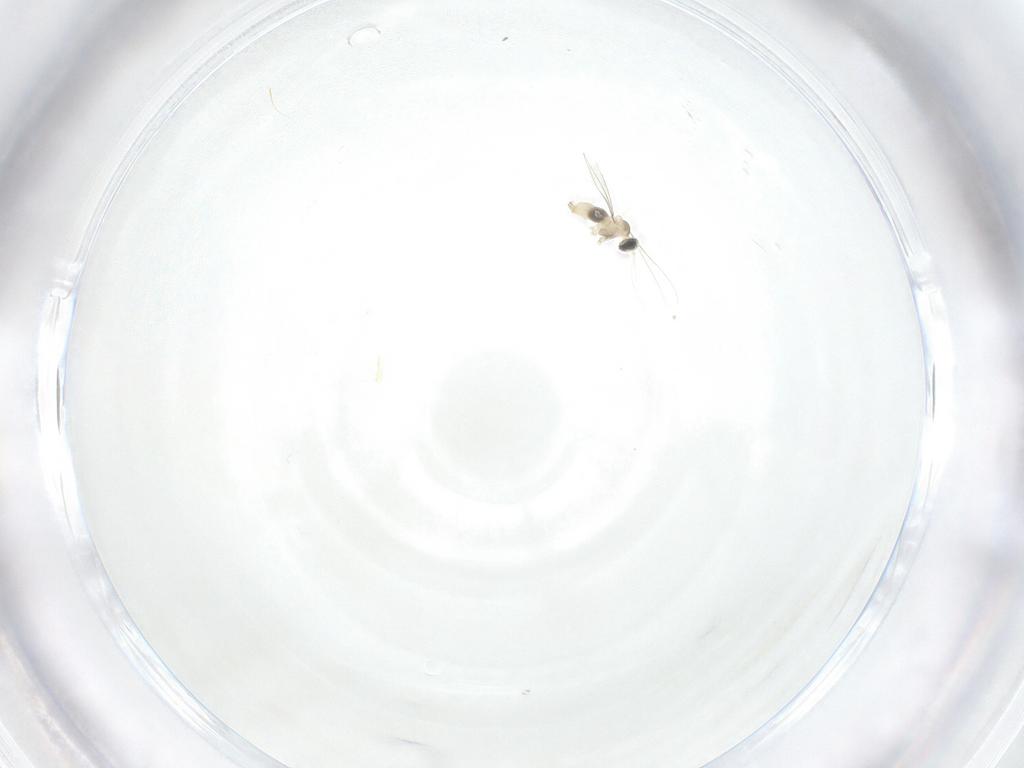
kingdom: Animalia
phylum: Arthropoda
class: Insecta
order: Diptera
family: Cecidomyiidae
